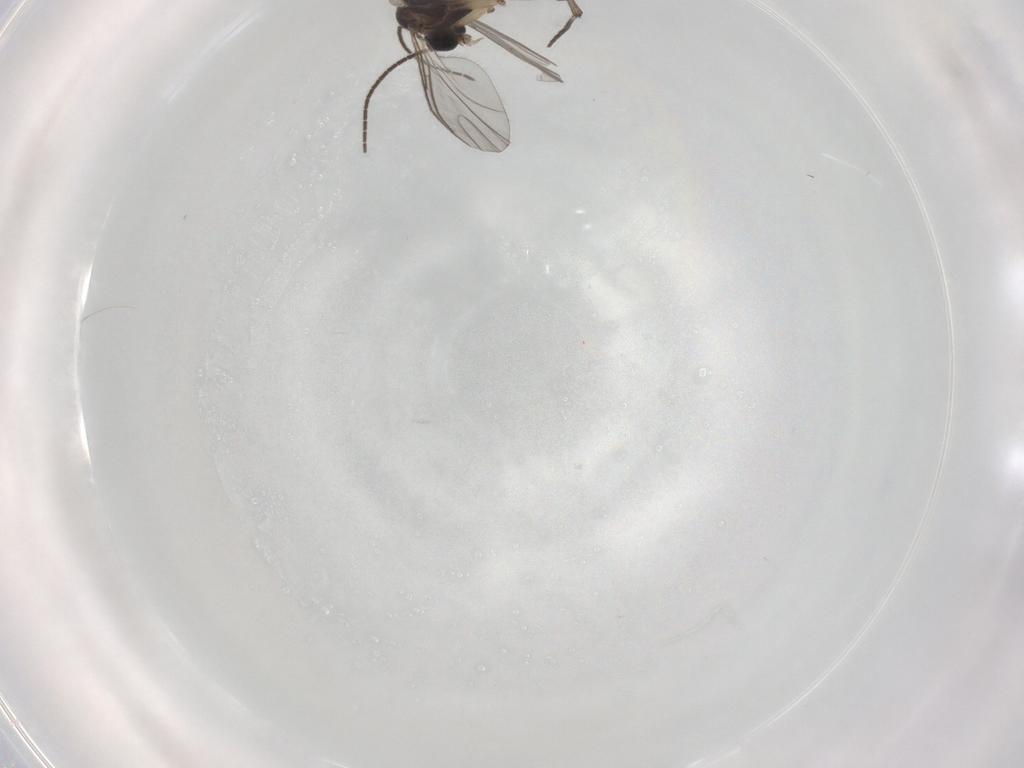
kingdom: Animalia
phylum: Arthropoda
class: Insecta
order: Diptera
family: Sciaridae
